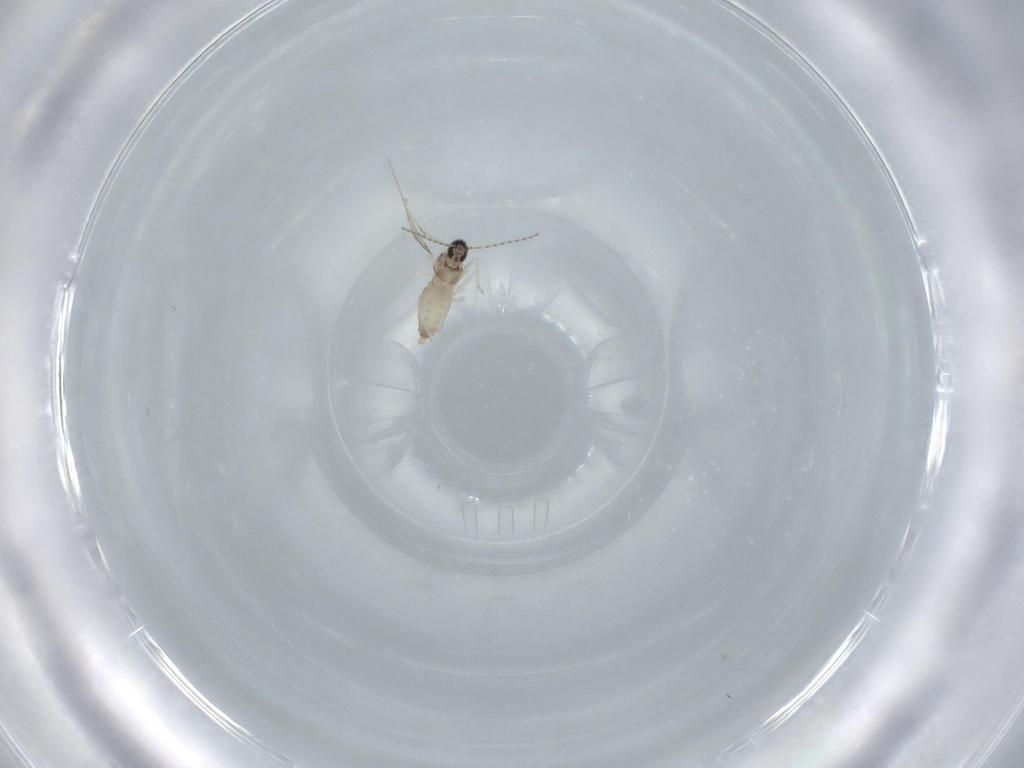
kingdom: Animalia
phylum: Arthropoda
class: Insecta
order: Diptera
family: Cecidomyiidae
